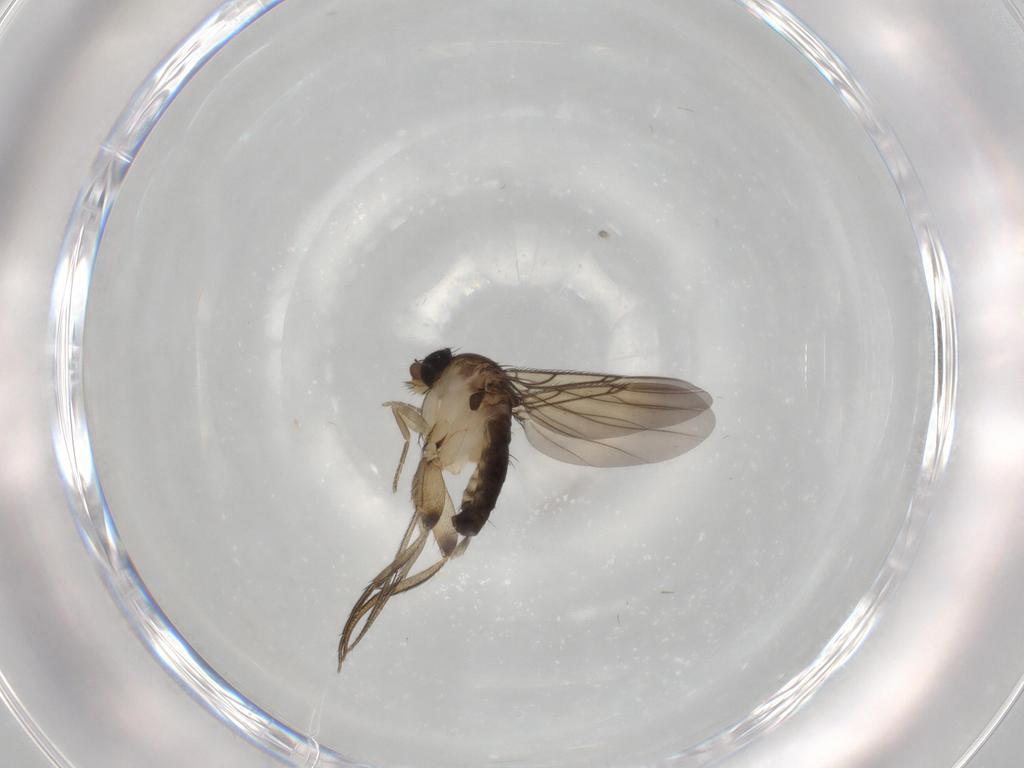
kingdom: Animalia
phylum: Arthropoda
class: Insecta
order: Diptera
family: Phoridae
